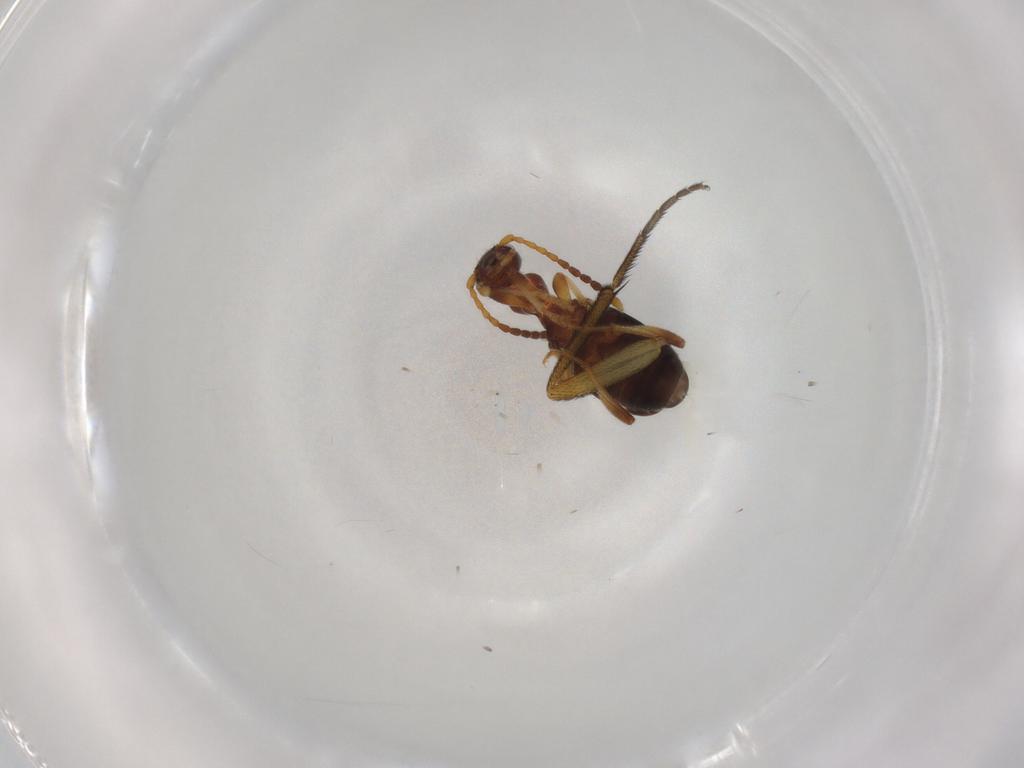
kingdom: Animalia
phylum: Arthropoda
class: Insecta
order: Coleoptera
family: Anthicidae
